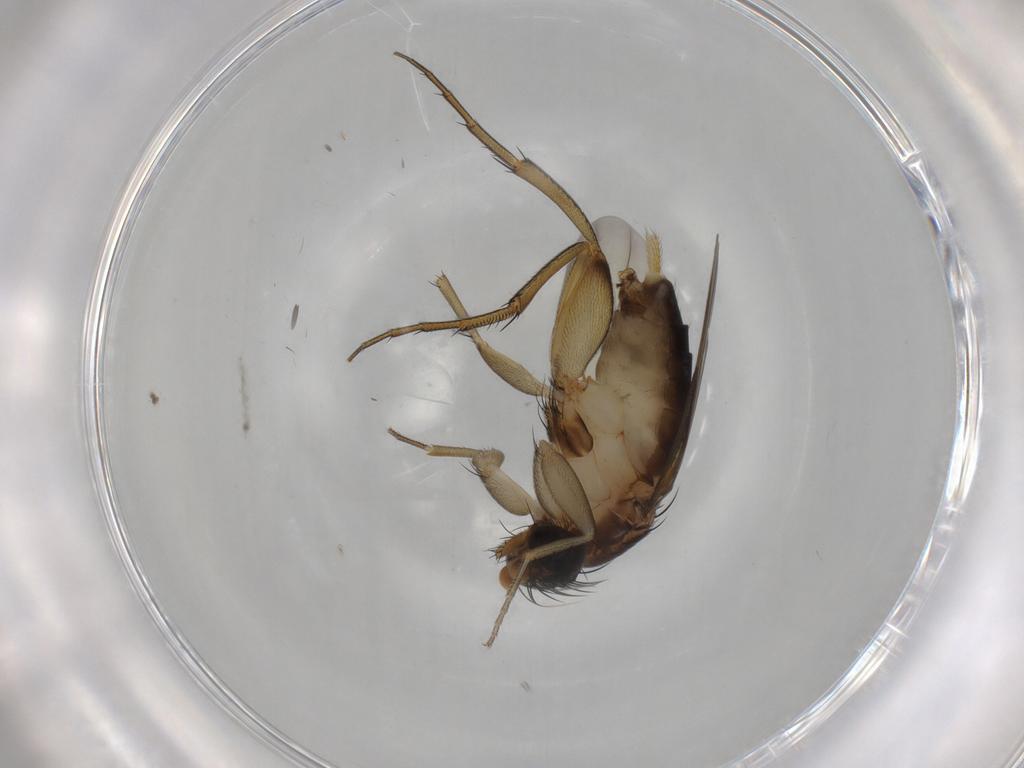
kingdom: Animalia
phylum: Arthropoda
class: Insecta
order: Diptera
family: Phoridae
